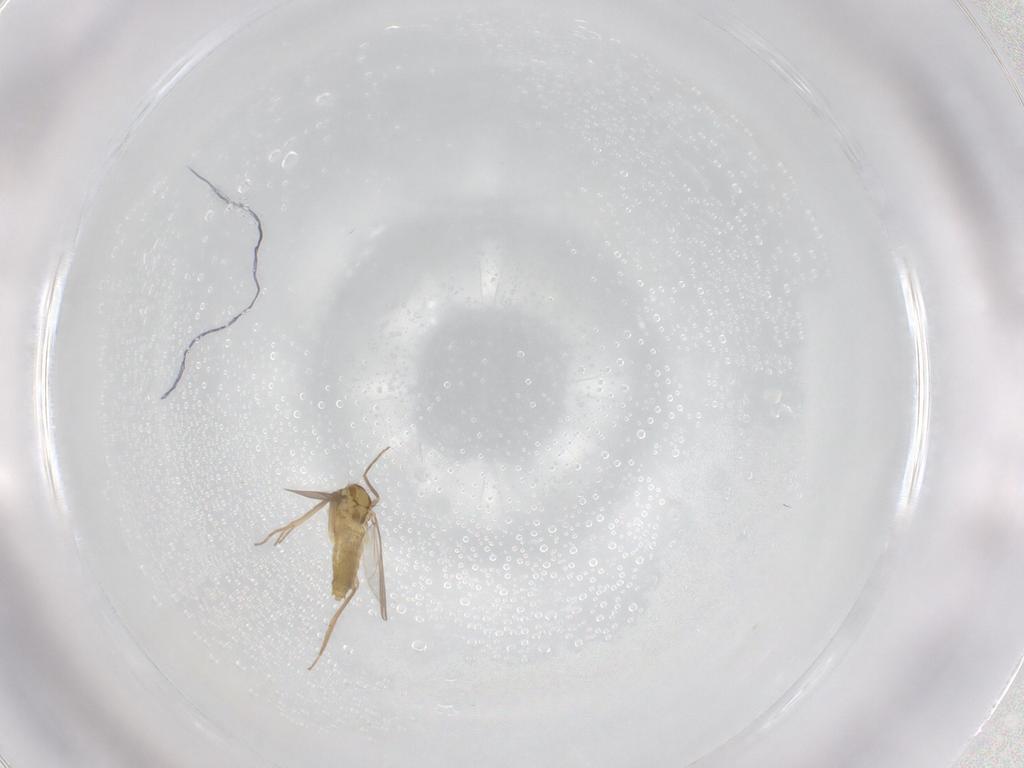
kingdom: Animalia
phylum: Arthropoda
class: Insecta
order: Diptera
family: Chironomidae
